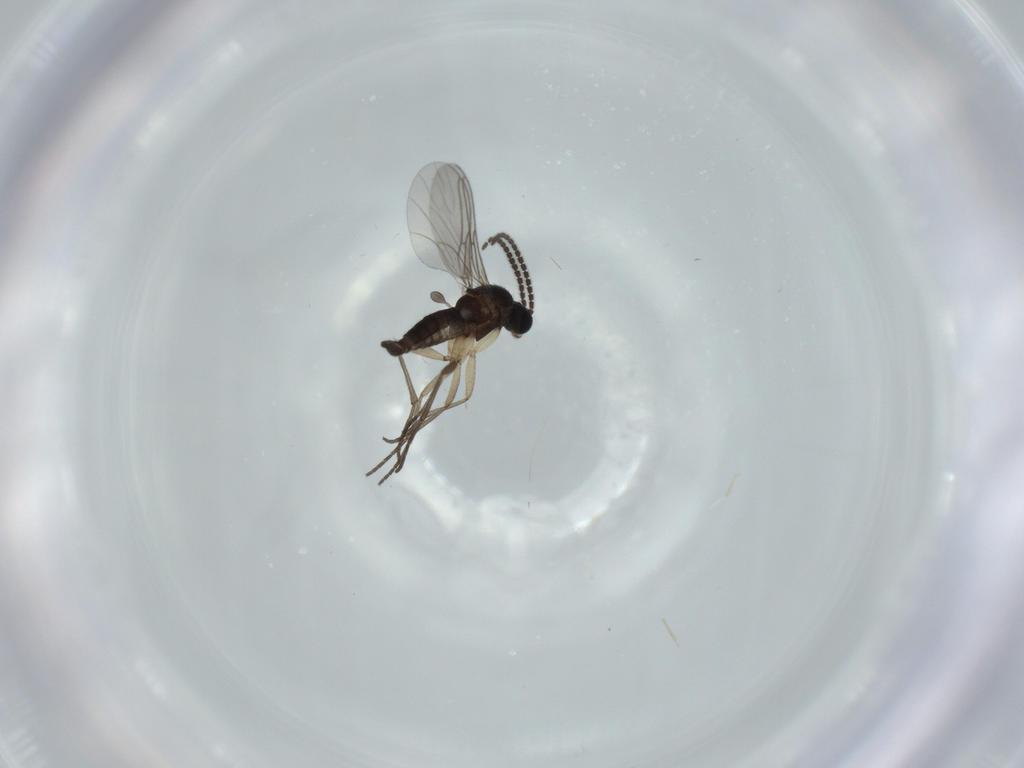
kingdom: Animalia
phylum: Arthropoda
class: Insecta
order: Diptera
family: Sciaridae
